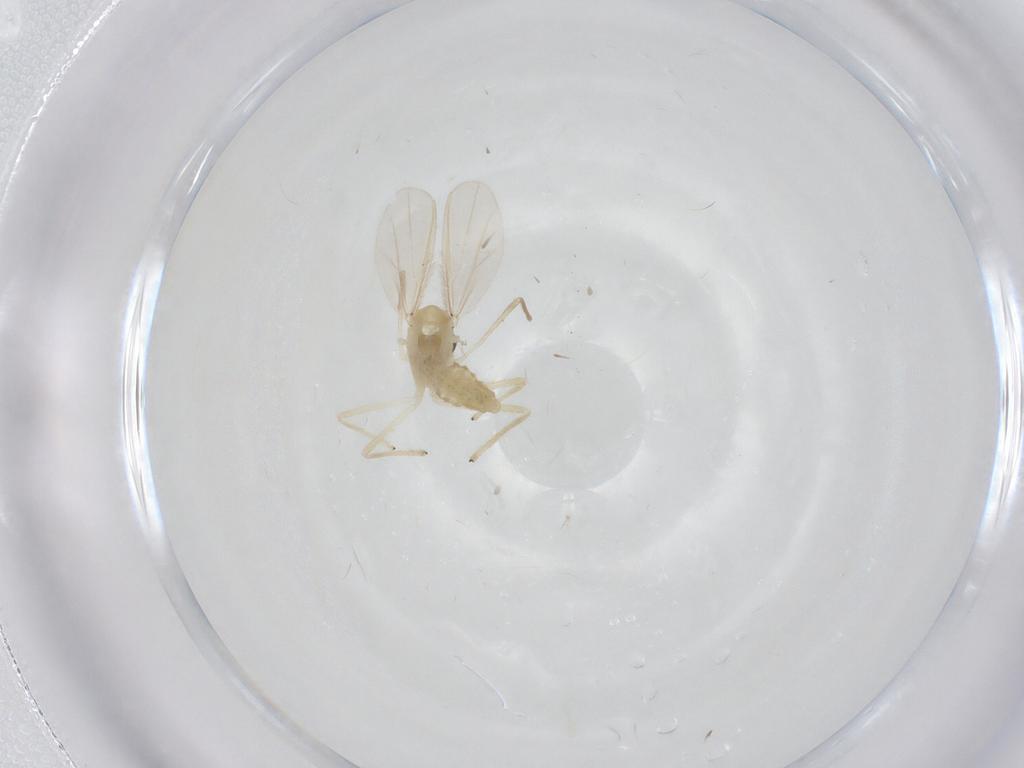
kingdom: Animalia
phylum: Arthropoda
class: Insecta
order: Diptera
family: Chironomidae
